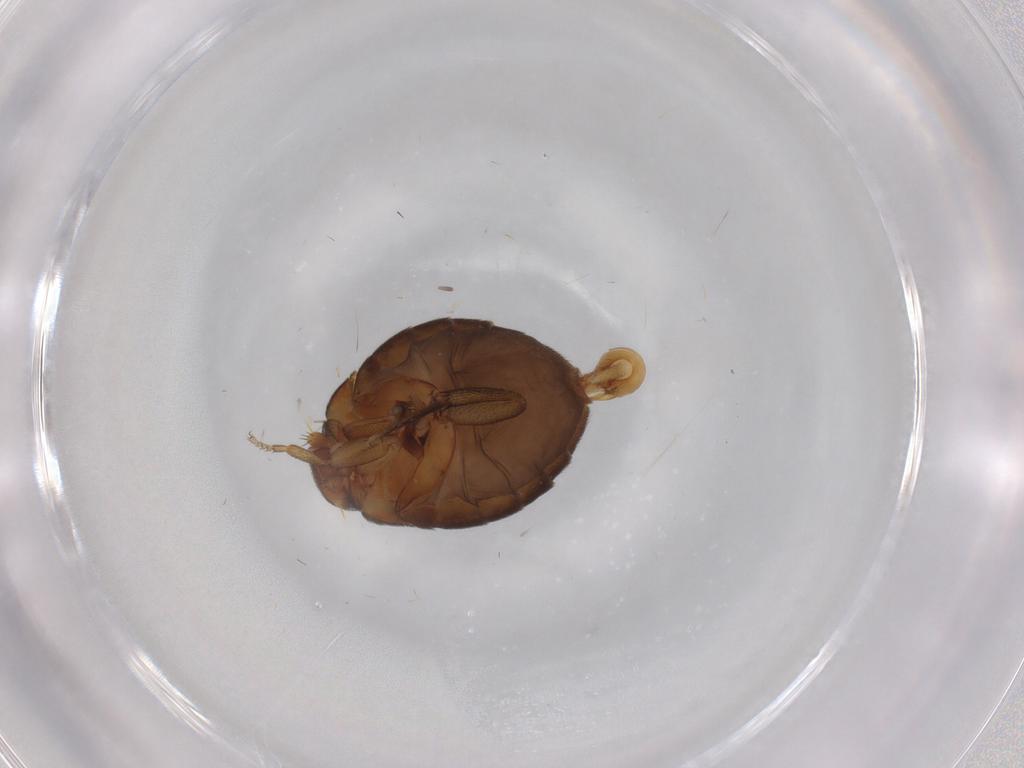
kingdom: Animalia
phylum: Arthropoda
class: Insecta
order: Diptera
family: Phoridae
